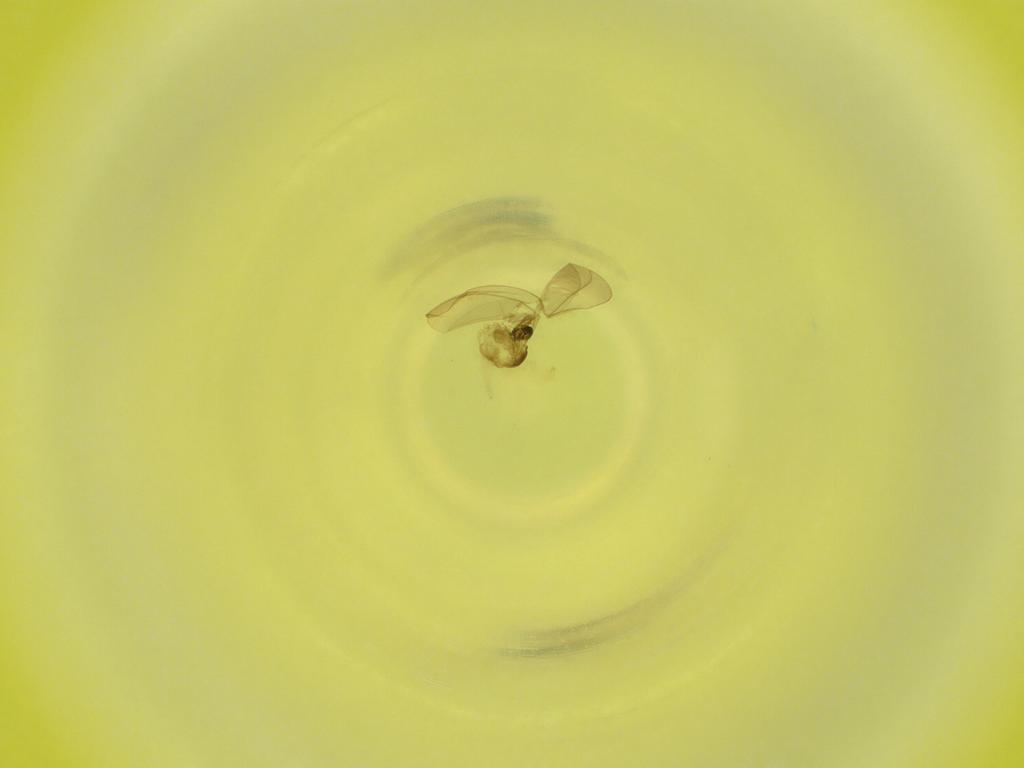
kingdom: Animalia
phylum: Arthropoda
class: Insecta
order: Diptera
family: Cecidomyiidae
